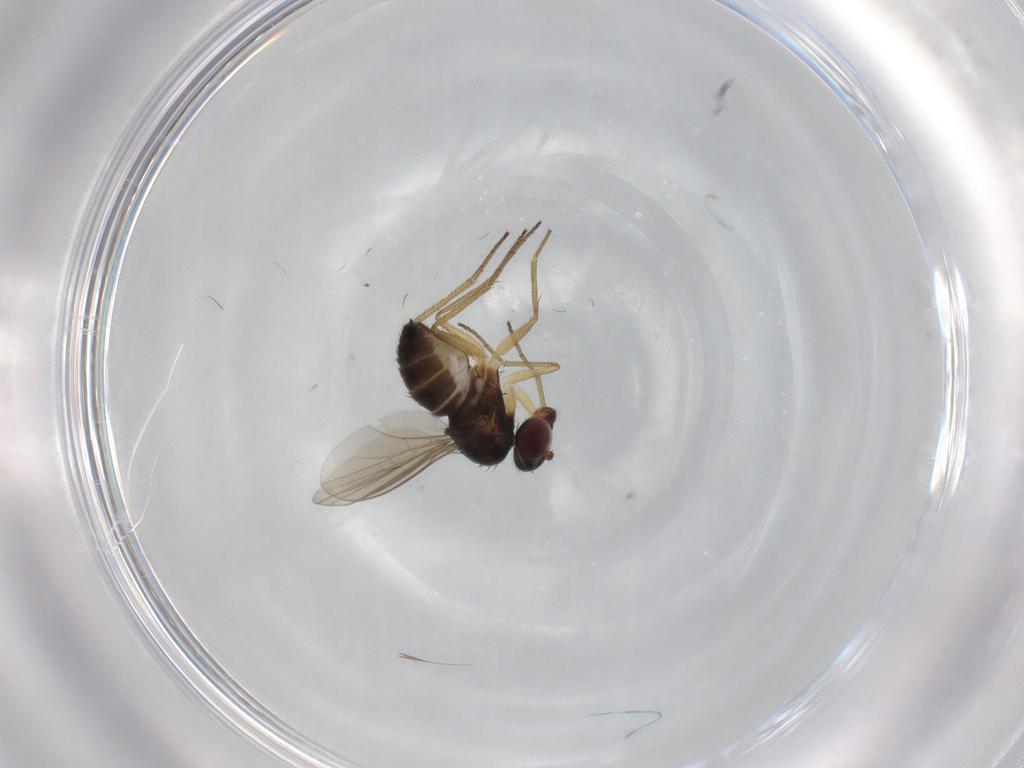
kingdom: Animalia
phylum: Arthropoda
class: Insecta
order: Diptera
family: Dolichopodidae
